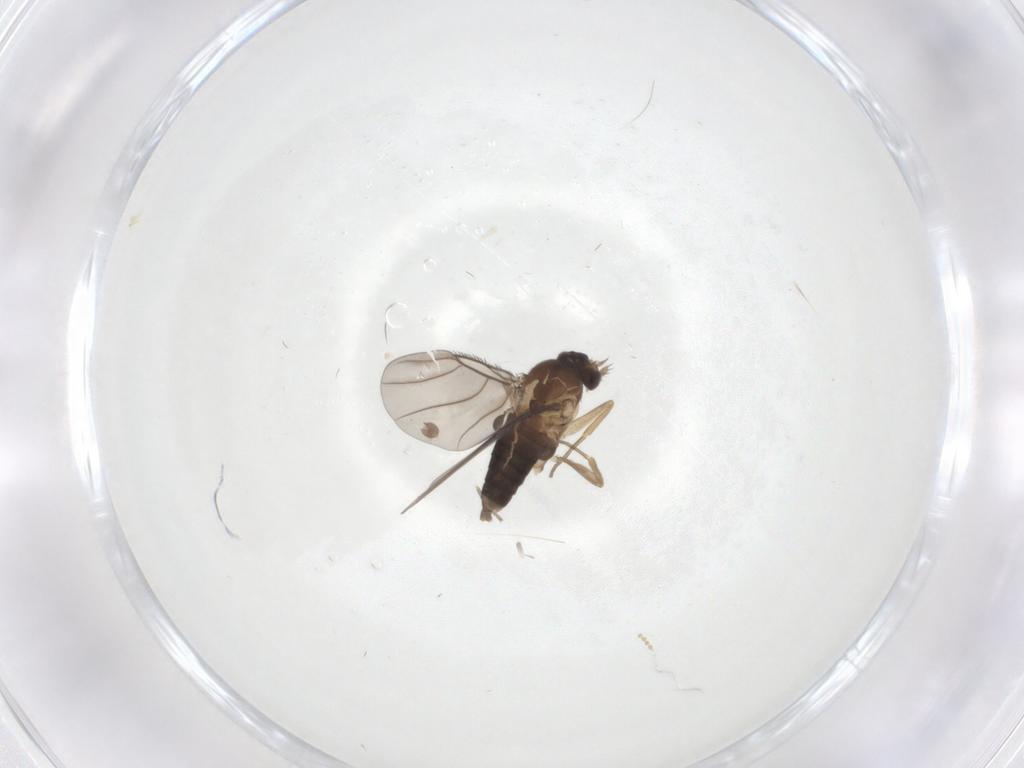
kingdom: Animalia
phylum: Arthropoda
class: Insecta
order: Diptera
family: Phoridae
